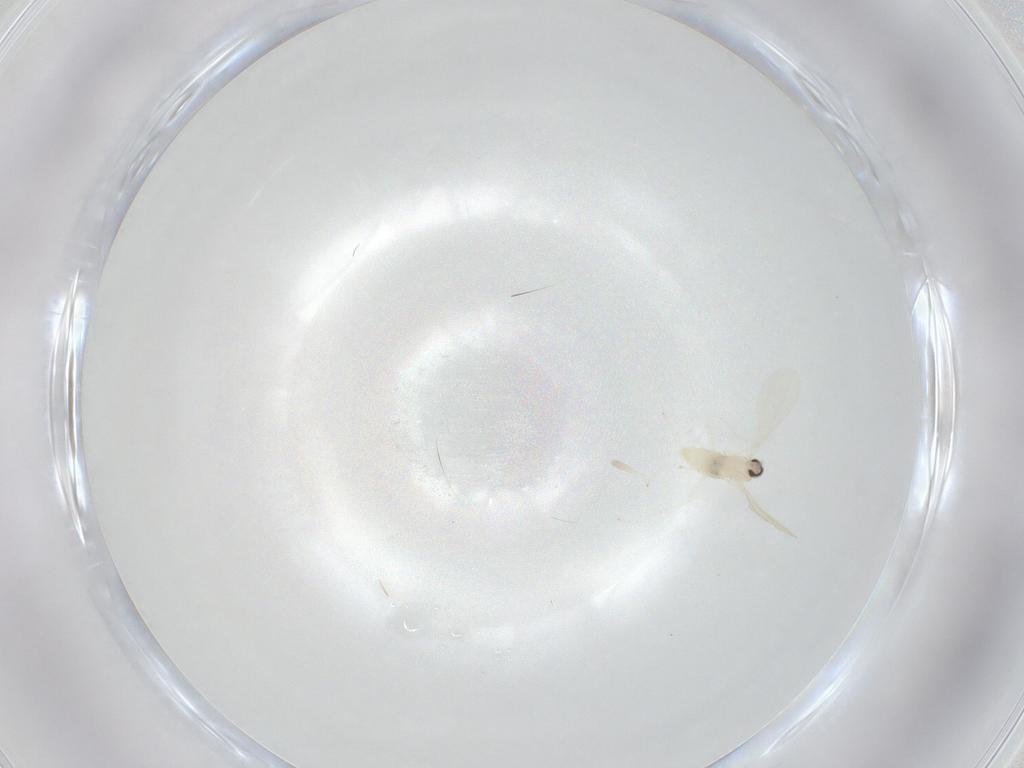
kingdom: Animalia
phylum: Arthropoda
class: Insecta
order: Diptera
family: Cecidomyiidae
